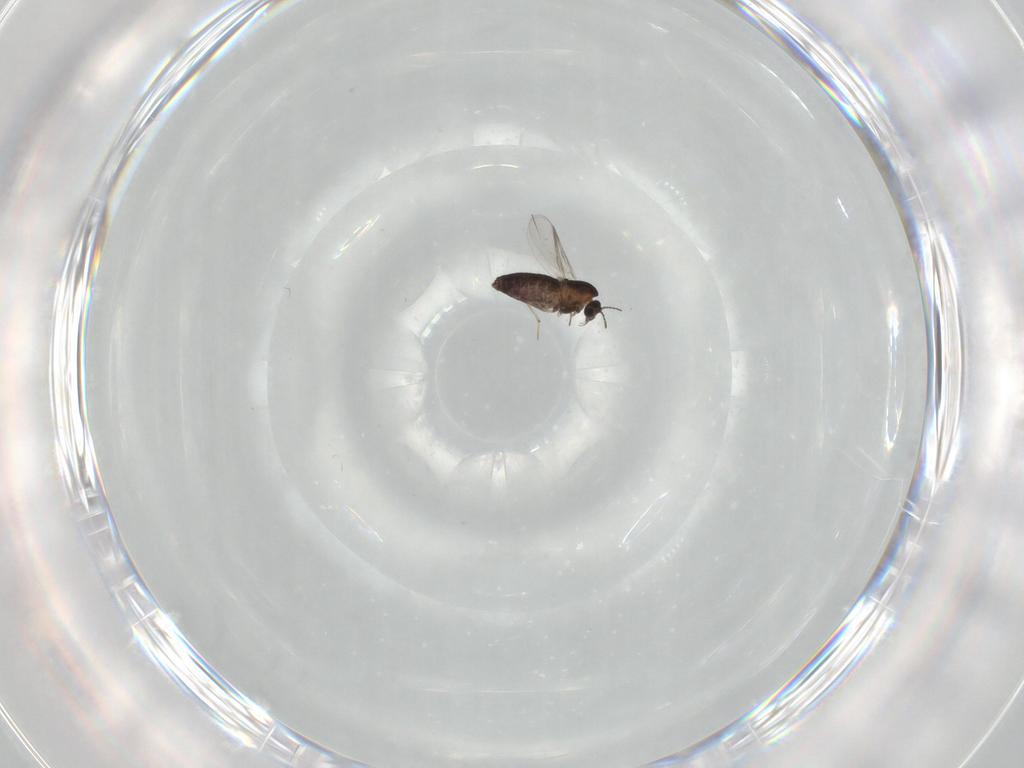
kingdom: Animalia
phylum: Arthropoda
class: Insecta
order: Diptera
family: Chironomidae
